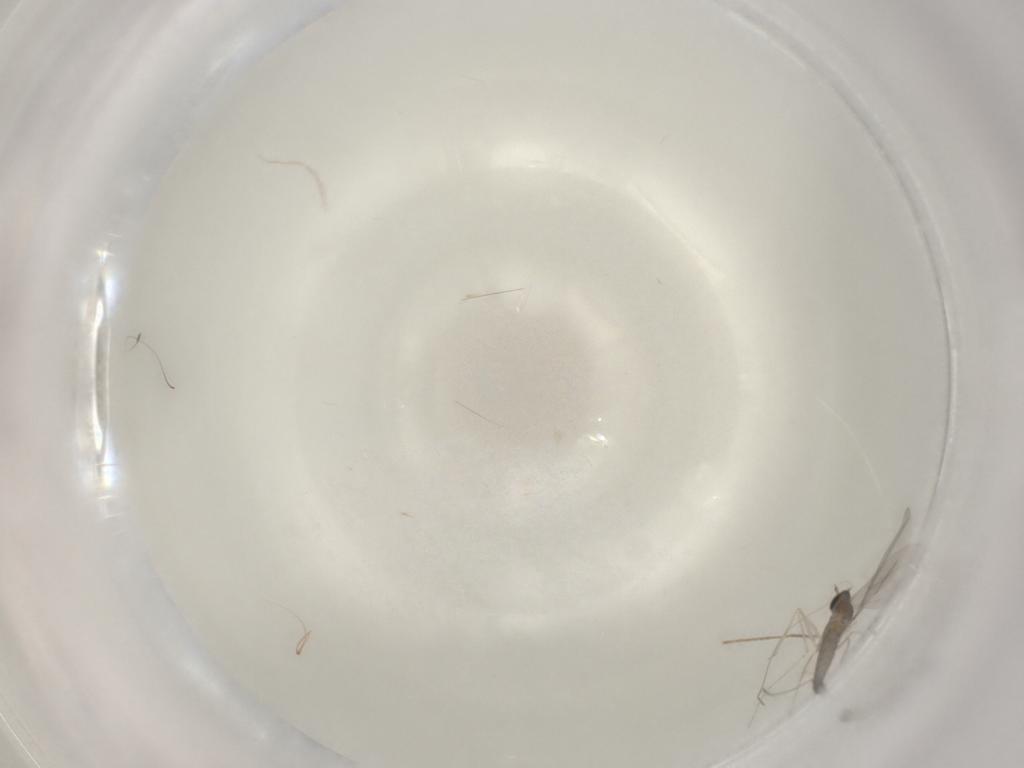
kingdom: Animalia
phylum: Arthropoda
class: Insecta
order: Diptera
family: Cecidomyiidae
